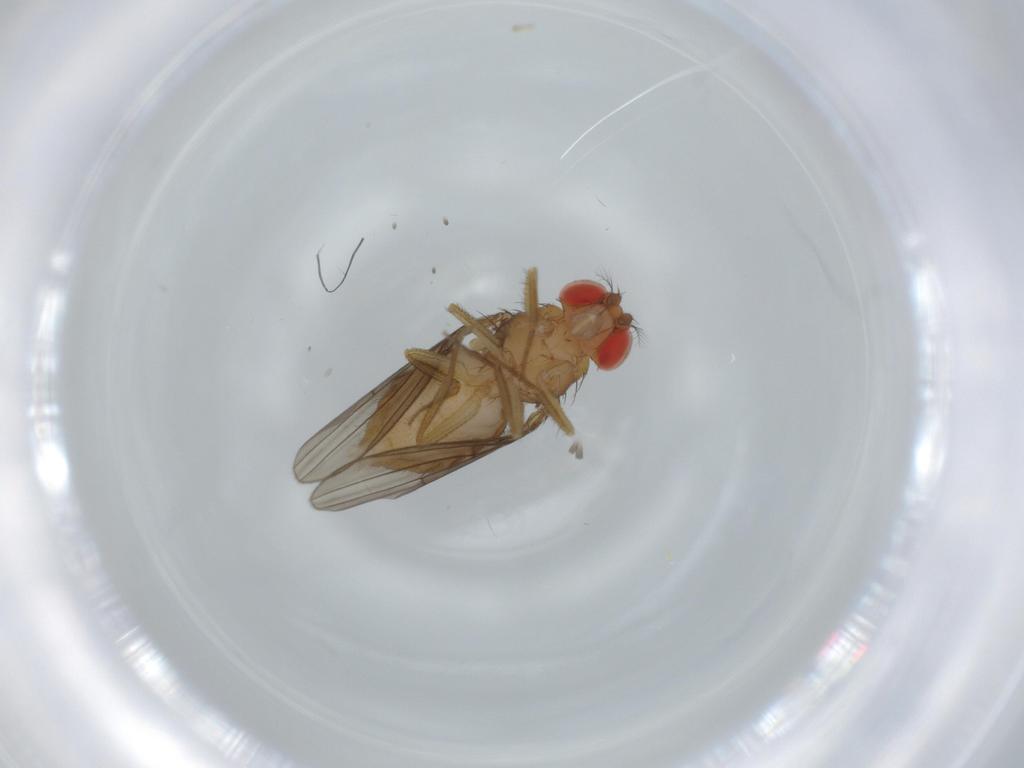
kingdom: Animalia
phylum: Arthropoda
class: Insecta
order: Diptera
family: Drosophilidae
